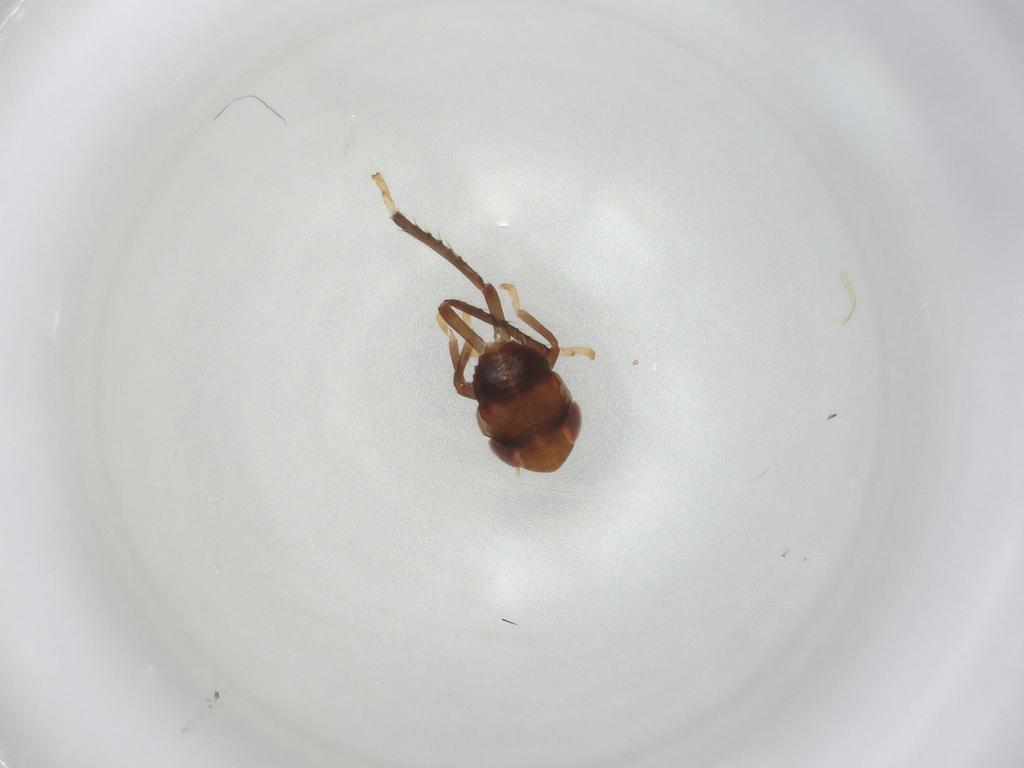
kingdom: Animalia
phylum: Arthropoda
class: Insecta
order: Hemiptera
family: Cicadellidae
